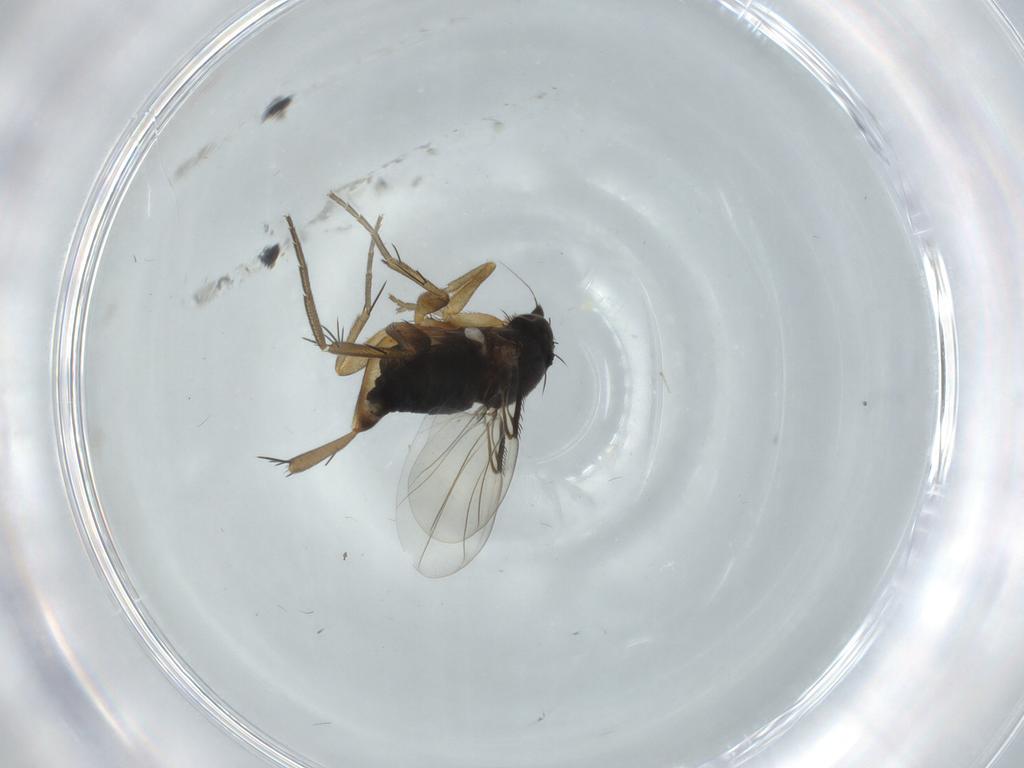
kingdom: Animalia
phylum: Arthropoda
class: Insecta
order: Diptera
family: Phoridae
